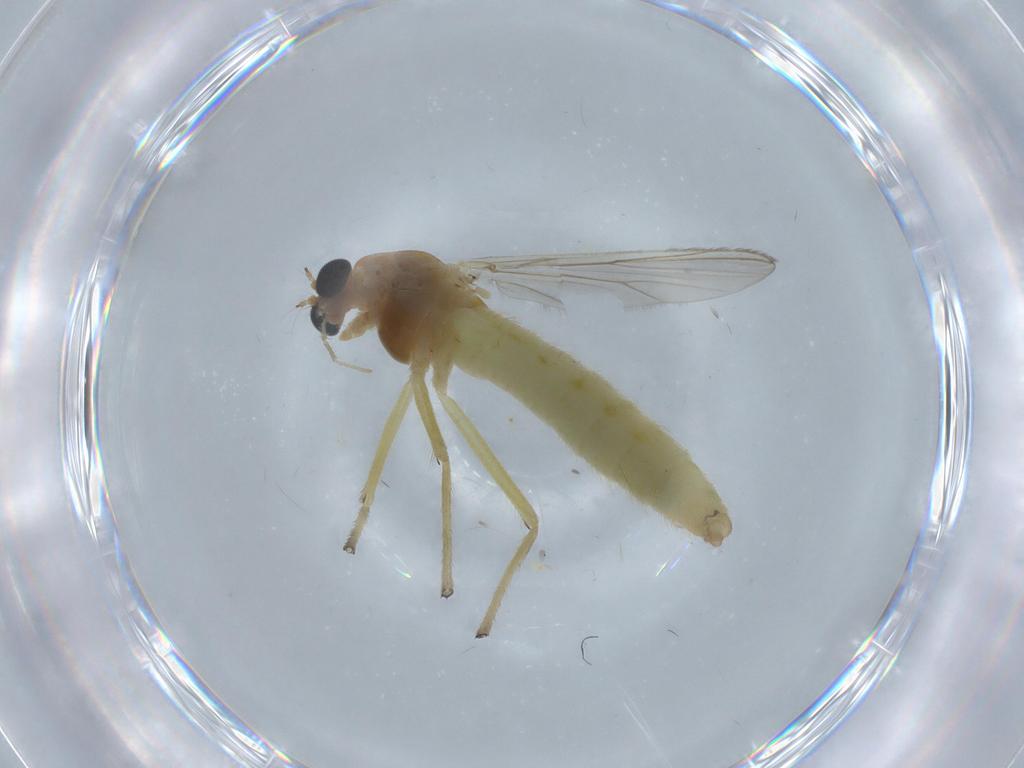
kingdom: Animalia
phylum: Arthropoda
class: Insecta
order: Diptera
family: Chironomidae
